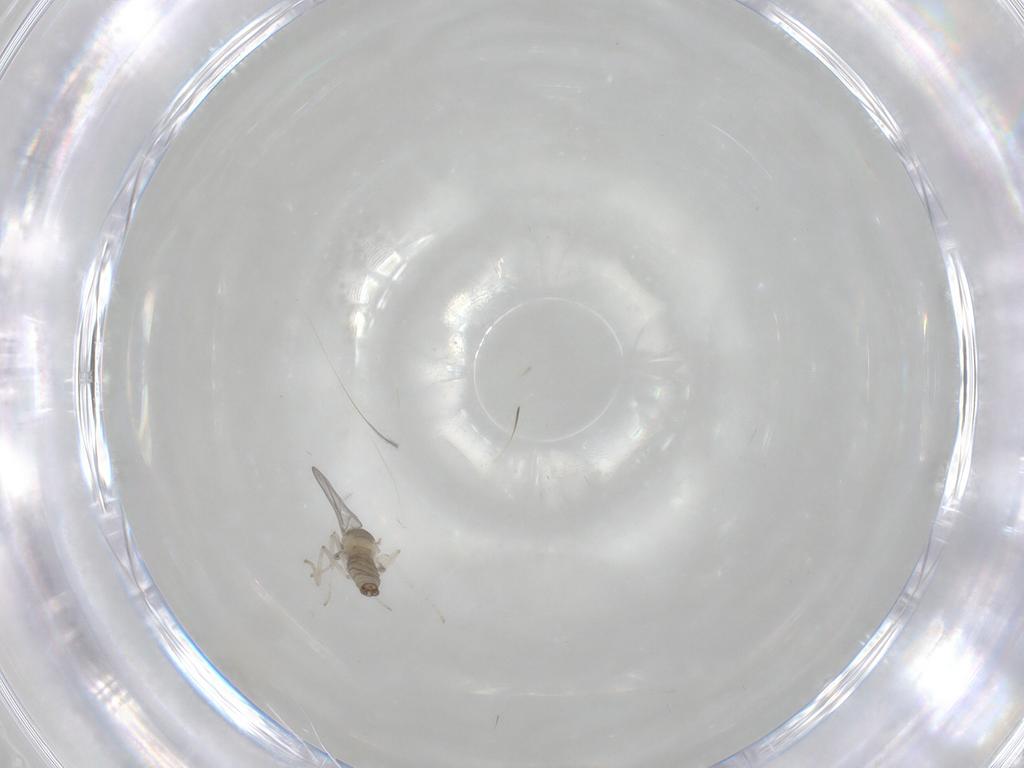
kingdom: Animalia
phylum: Arthropoda
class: Insecta
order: Diptera
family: Cecidomyiidae
